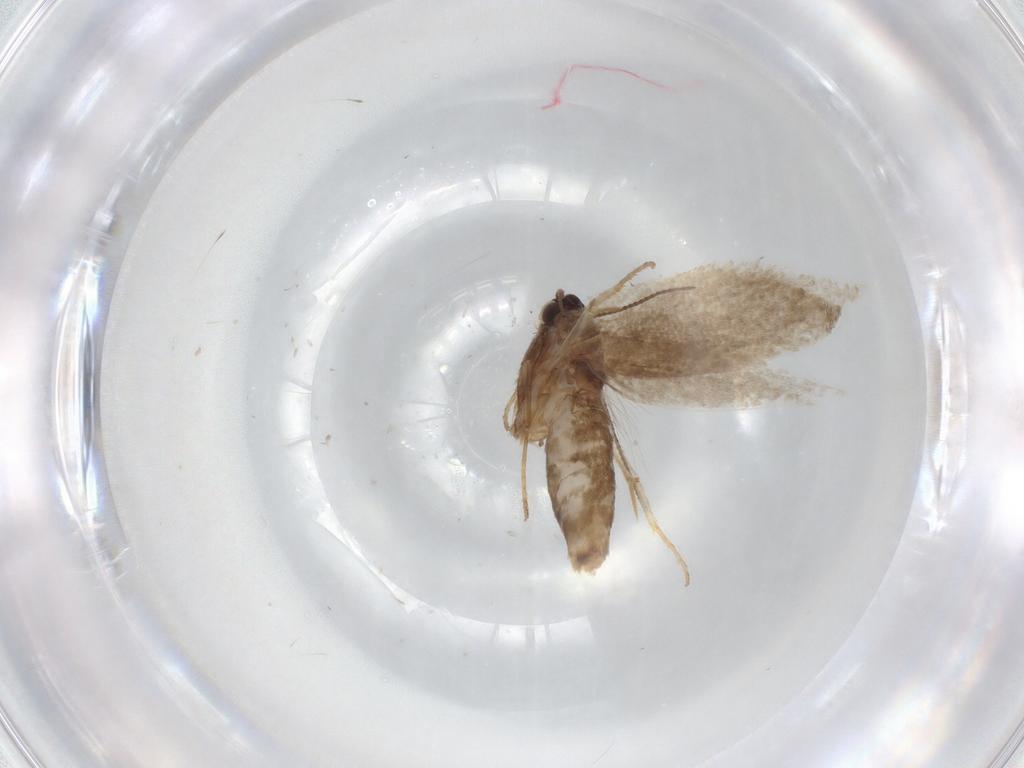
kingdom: Animalia
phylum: Arthropoda
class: Insecta
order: Lepidoptera
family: Nepticulidae
